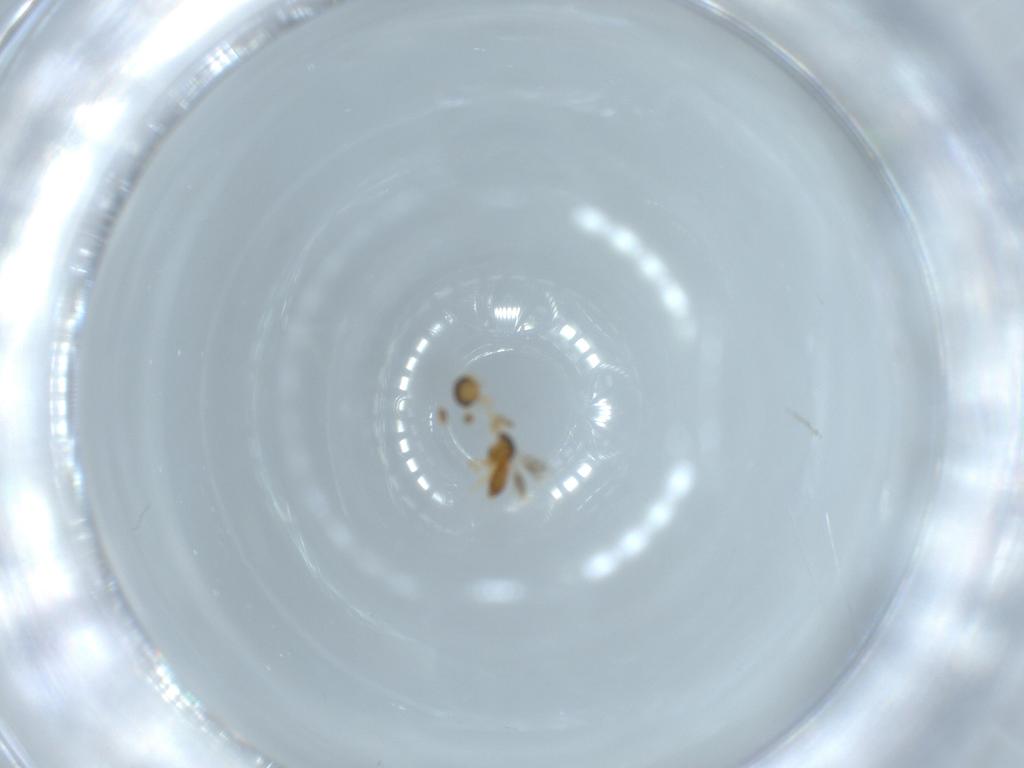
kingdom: Animalia
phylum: Arthropoda
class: Insecta
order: Hymenoptera
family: Scelionidae
